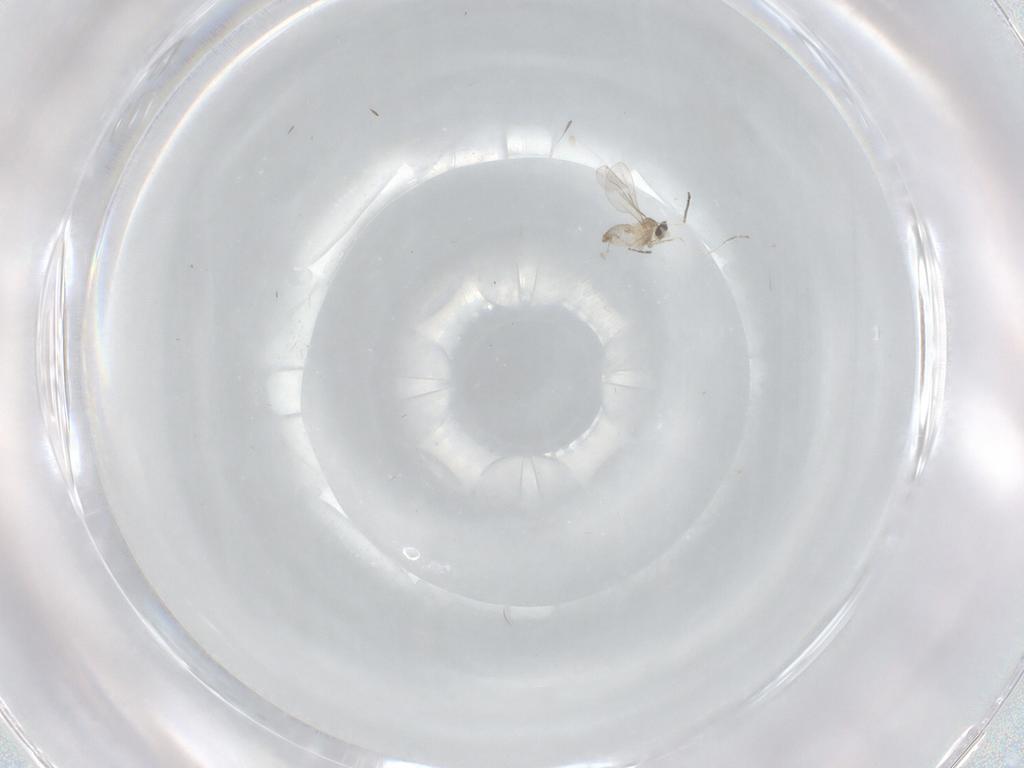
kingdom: Animalia
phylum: Arthropoda
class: Insecta
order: Diptera
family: Cecidomyiidae
